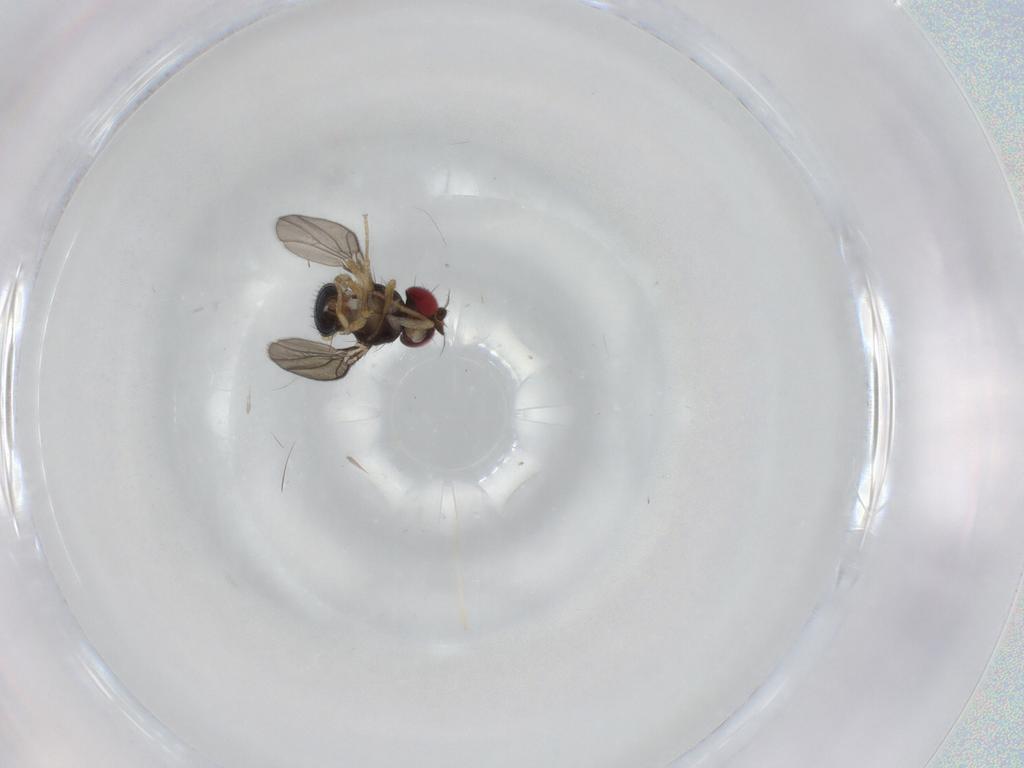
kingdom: Animalia
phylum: Arthropoda
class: Insecta
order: Diptera
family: Drosophilidae
